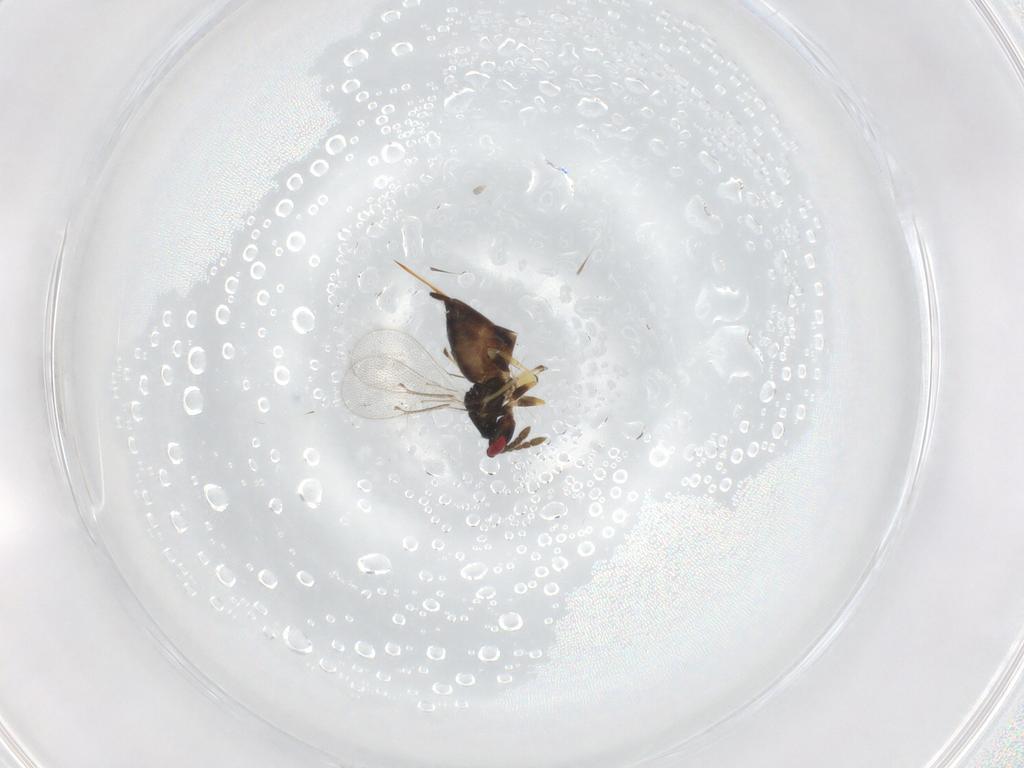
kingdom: Animalia
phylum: Arthropoda
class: Insecta
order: Hymenoptera
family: Eulophidae
